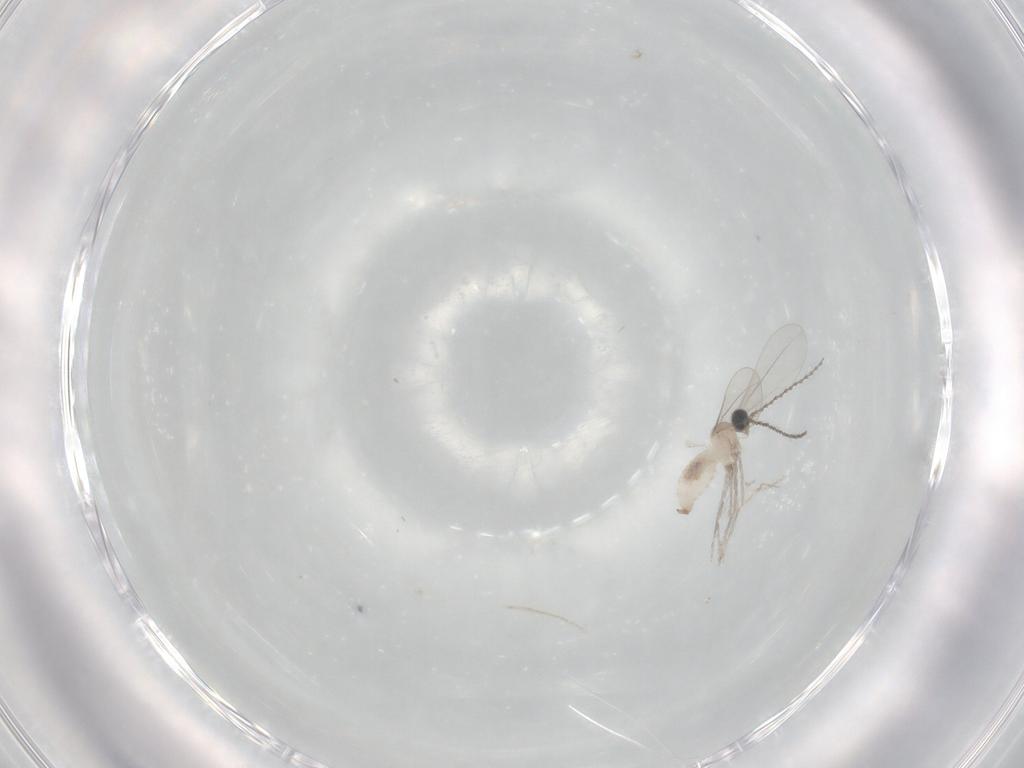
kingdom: Animalia
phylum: Arthropoda
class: Insecta
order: Diptera
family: Cecidomyiidae
